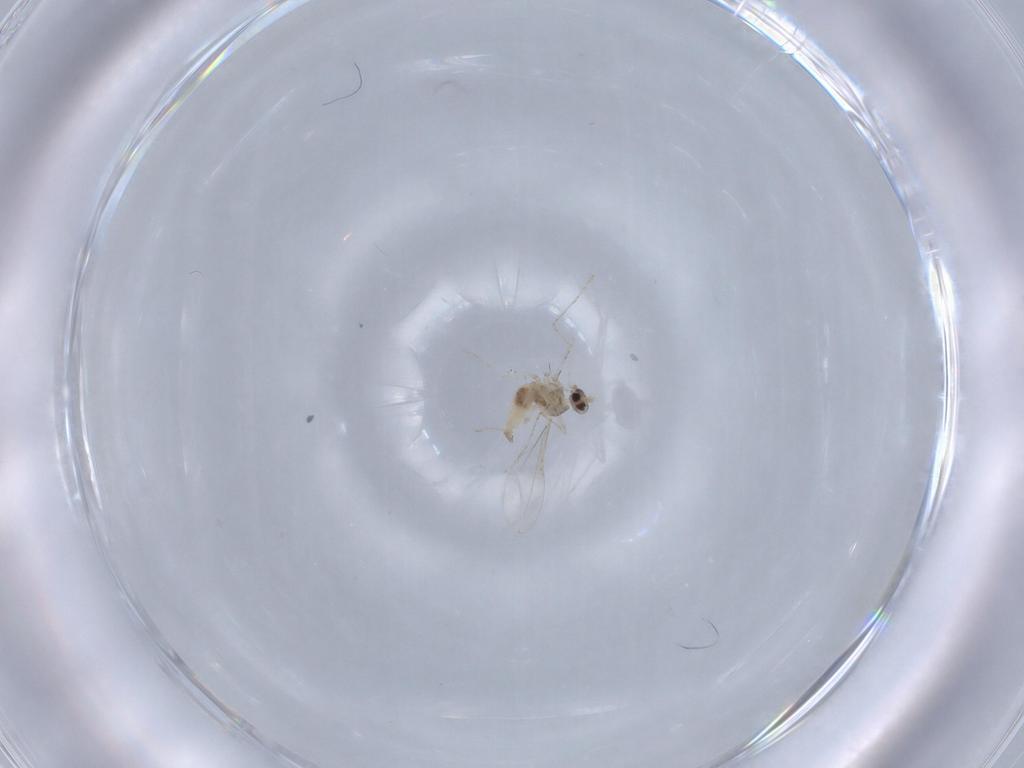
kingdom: Animalia
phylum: Arthropoda
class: Insecta
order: Diptera
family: Cecidomyiidae
